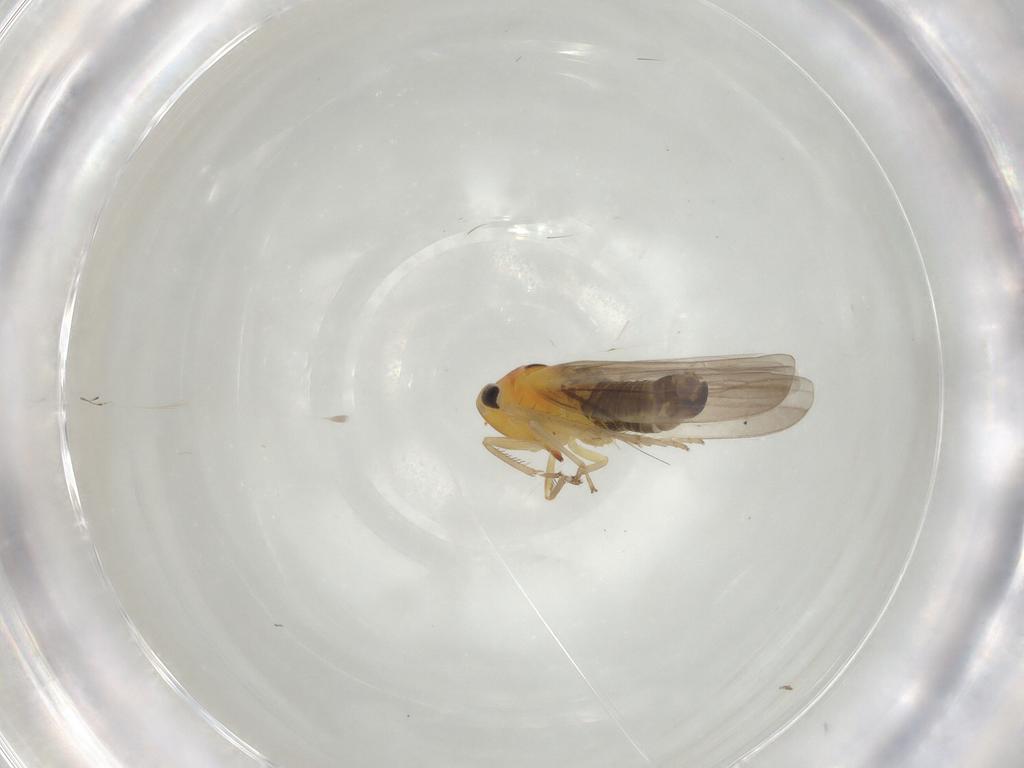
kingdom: Animalia
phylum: Arthropoda
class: Insecta
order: Hemiptera
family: Cicadellidae
